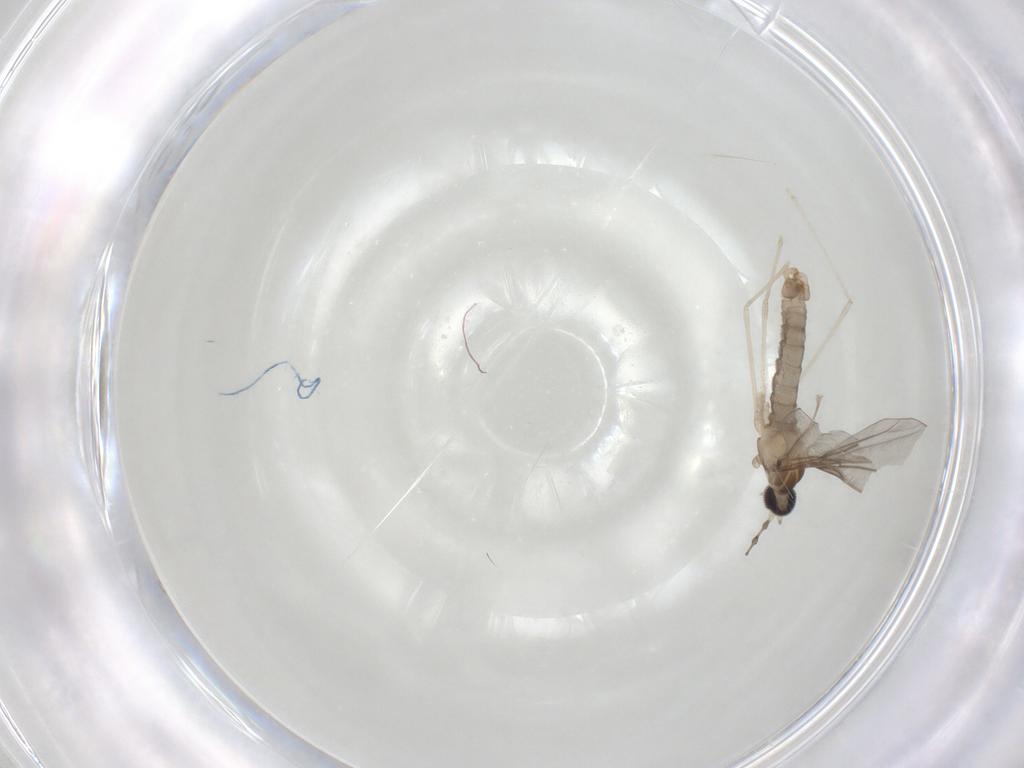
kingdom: Animalia
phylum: Arthropoda
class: Insecta
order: Diptera
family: Cecidomyiidae
